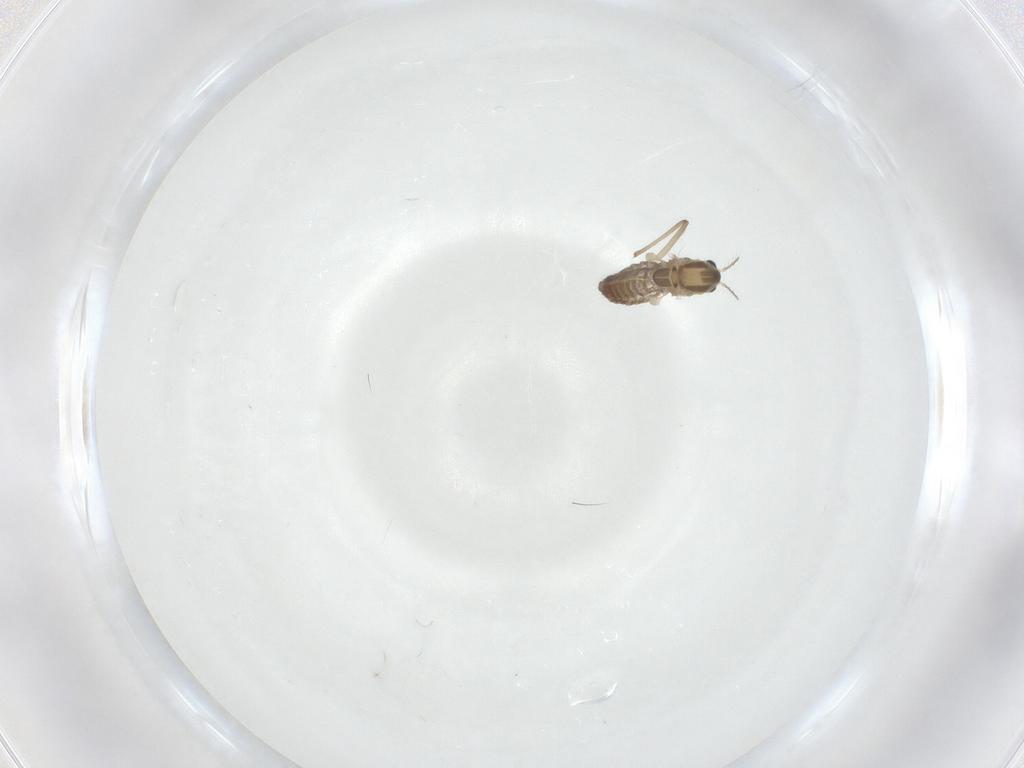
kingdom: Animalia
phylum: Arthropoda
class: Insecta
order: Diptera
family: Chironomidae
